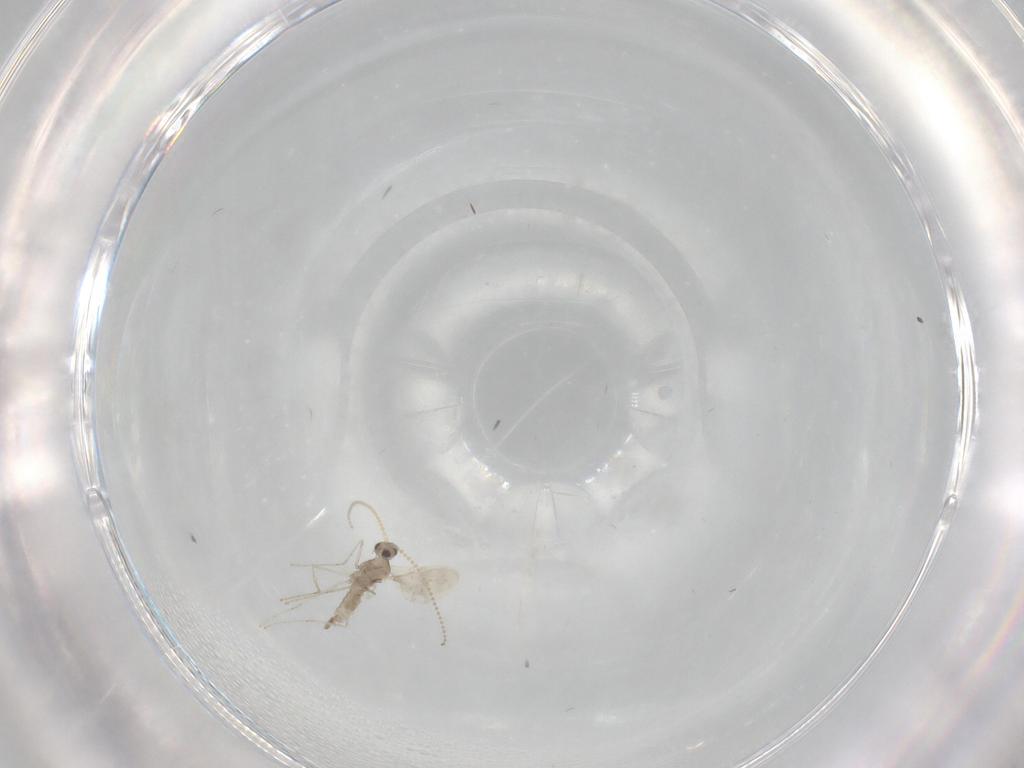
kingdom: Animalia
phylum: Arthropoda
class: Insecta
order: Diptera
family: Cecidomyiidae
